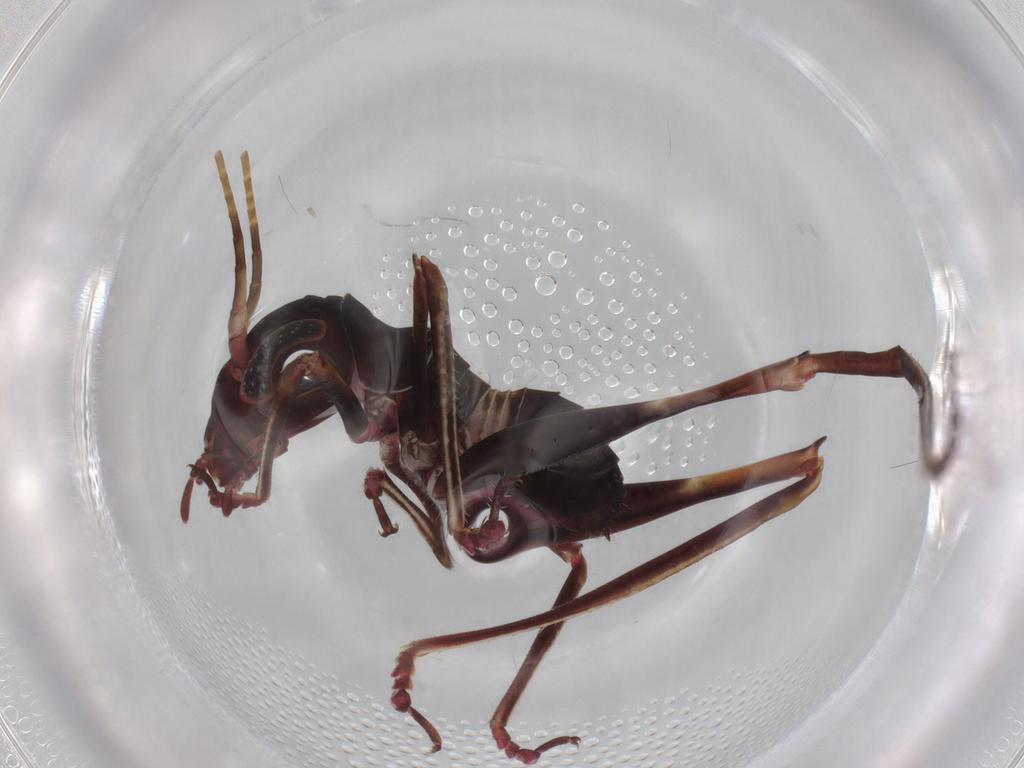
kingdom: Animalia
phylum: Arthropoda
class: Insecta
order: Orthoptera
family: Tettigoniidae
